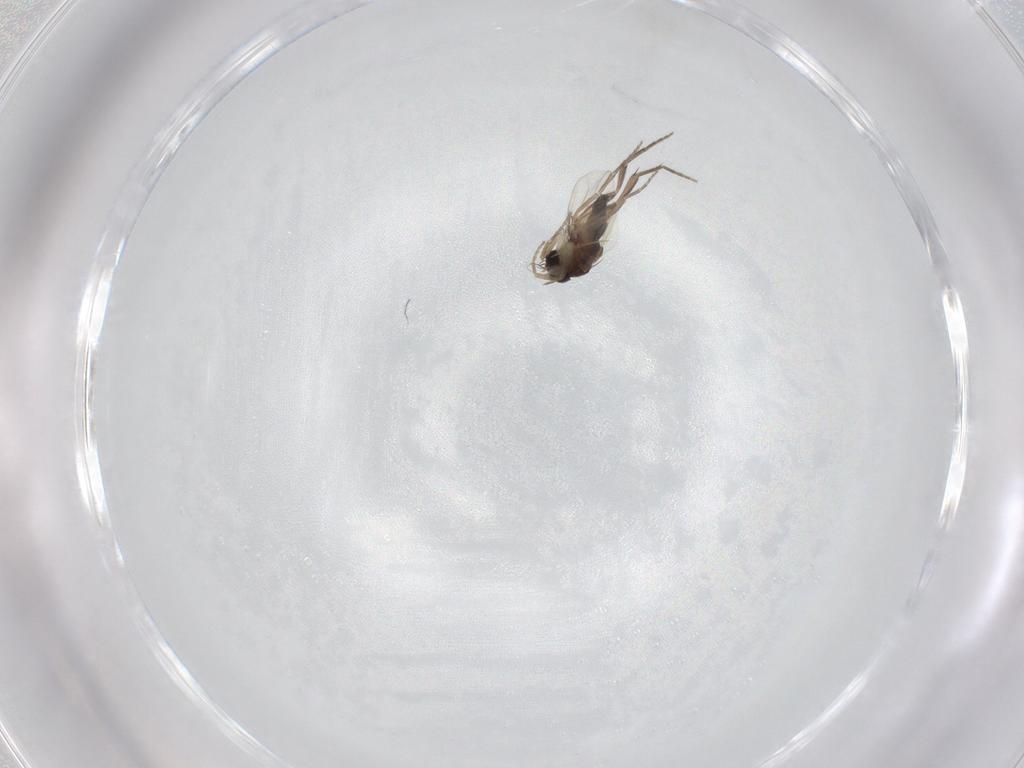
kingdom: Animalia
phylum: Arthropoda
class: Insecta
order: Diptera
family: Phoridae
